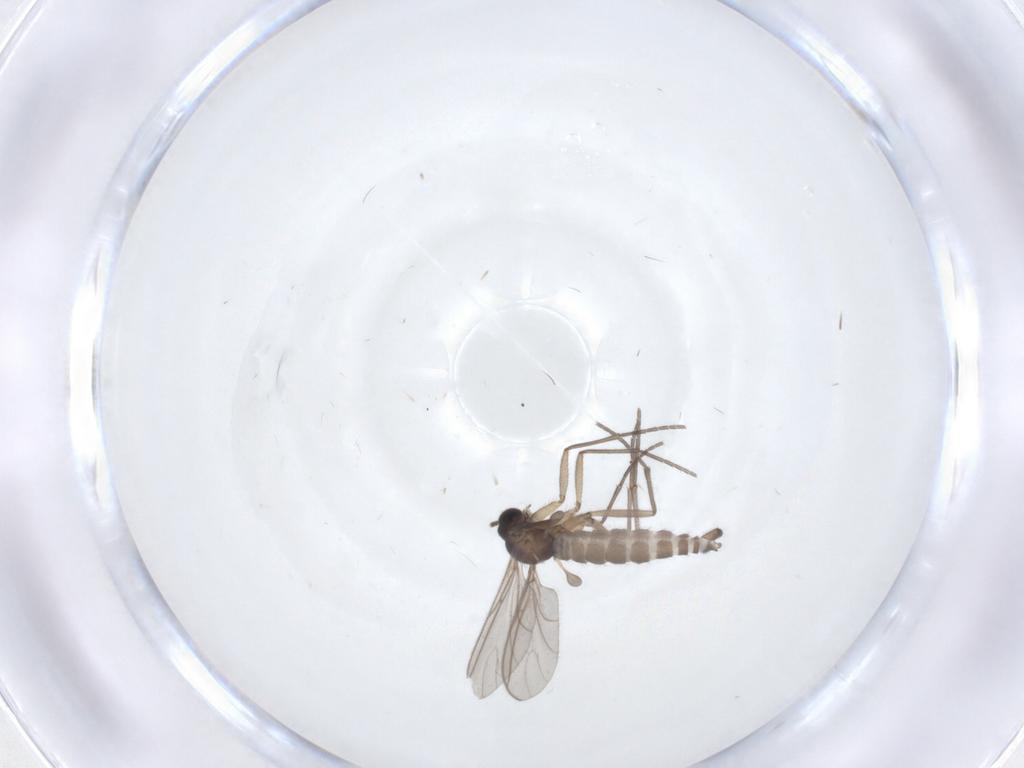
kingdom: Animalia
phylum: Arthropoda
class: Insecta
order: Diptera
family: Sciaridae
